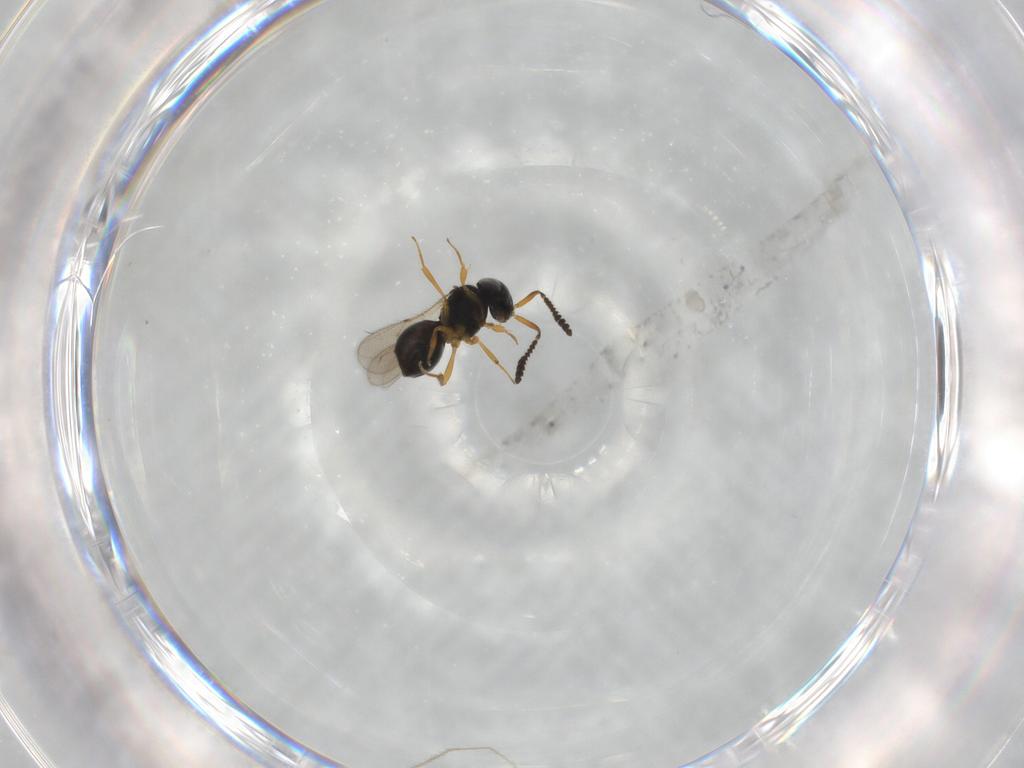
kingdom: Animalia
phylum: Arthropoda
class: Insecta
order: Hymenoptera
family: Scelionidae
